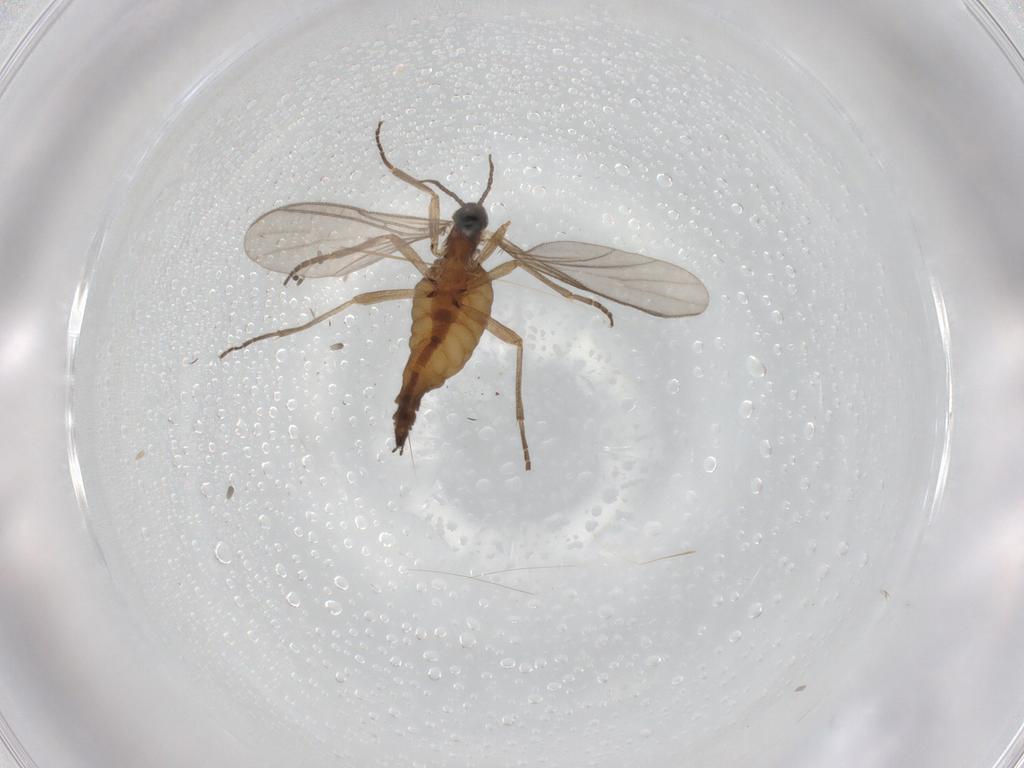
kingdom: Animalia
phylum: Arthropoda
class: Insecta
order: Diptera
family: Sciaridae
